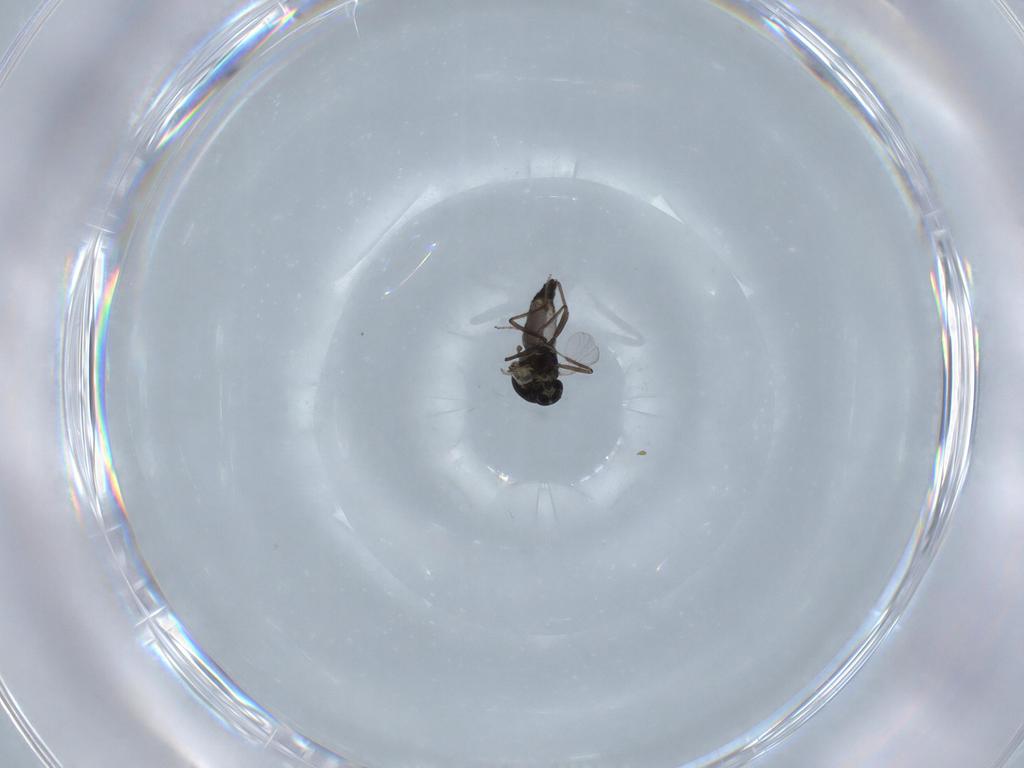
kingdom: Animalia
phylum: Arthropoda
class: Insecta
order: Diptera
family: Ceratopogonidae
